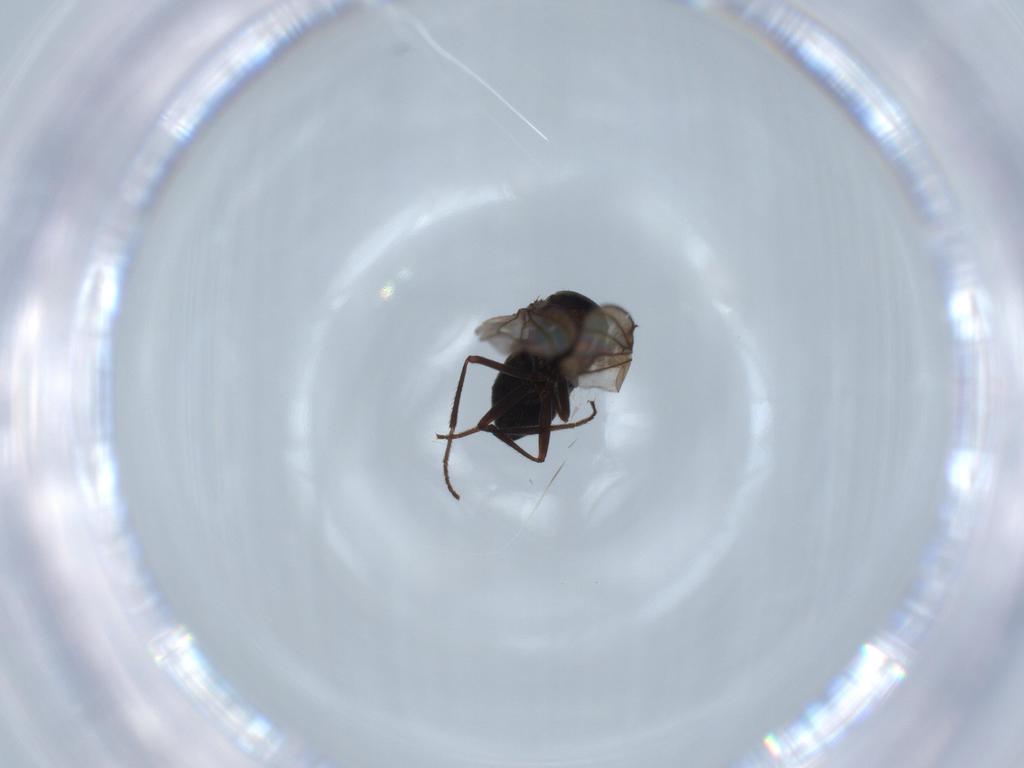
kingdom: Animalia
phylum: Arthropoda
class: Insecta
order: Diptera
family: Ephydridae
